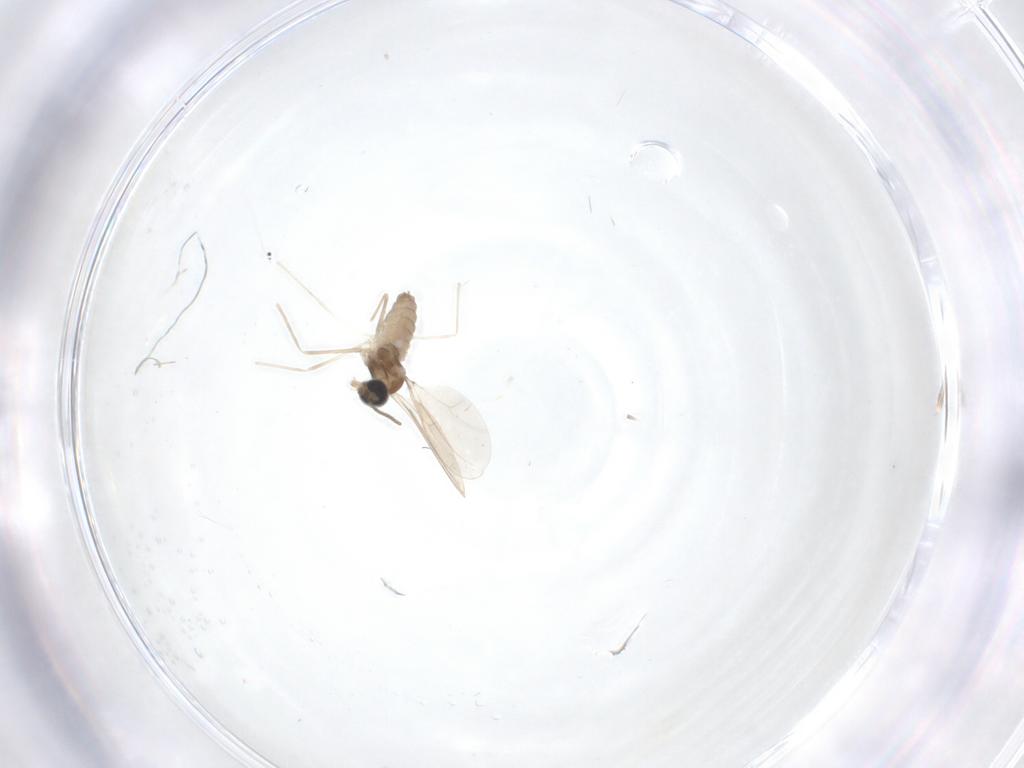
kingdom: Animalia
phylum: Arthropoda
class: Insecta
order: Diptera
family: Cecidomyiidae
